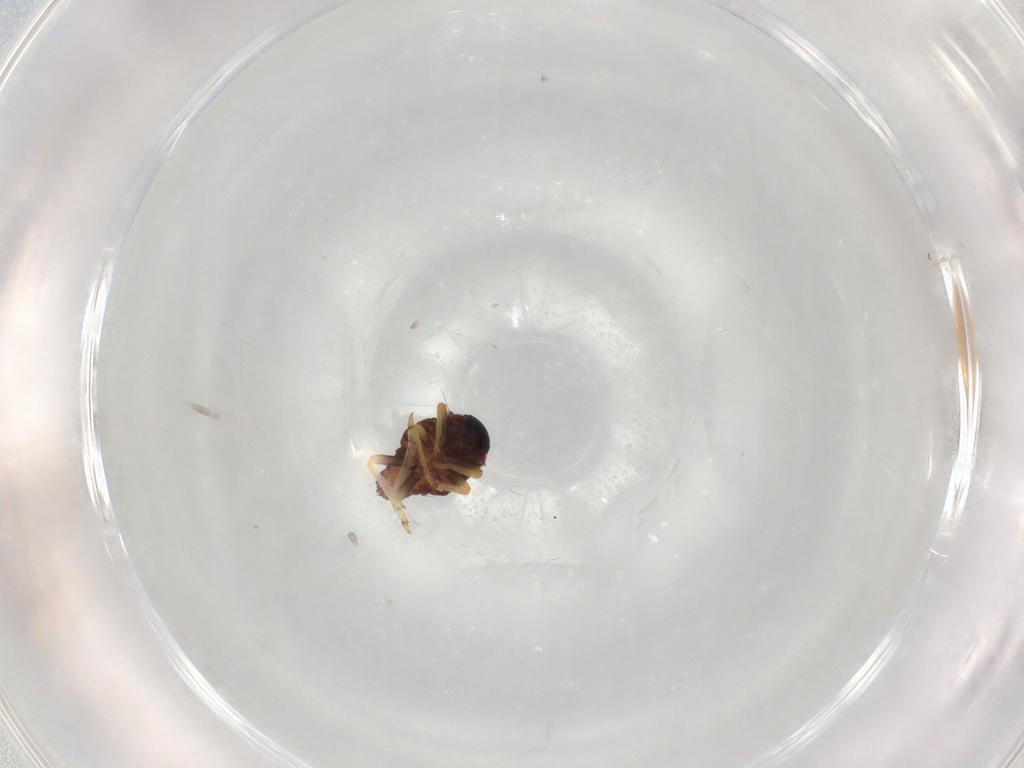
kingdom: Animalia
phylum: Arthropoda
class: Insecta
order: Hemiptera
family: Fulgoroidea_incertae_sedis
